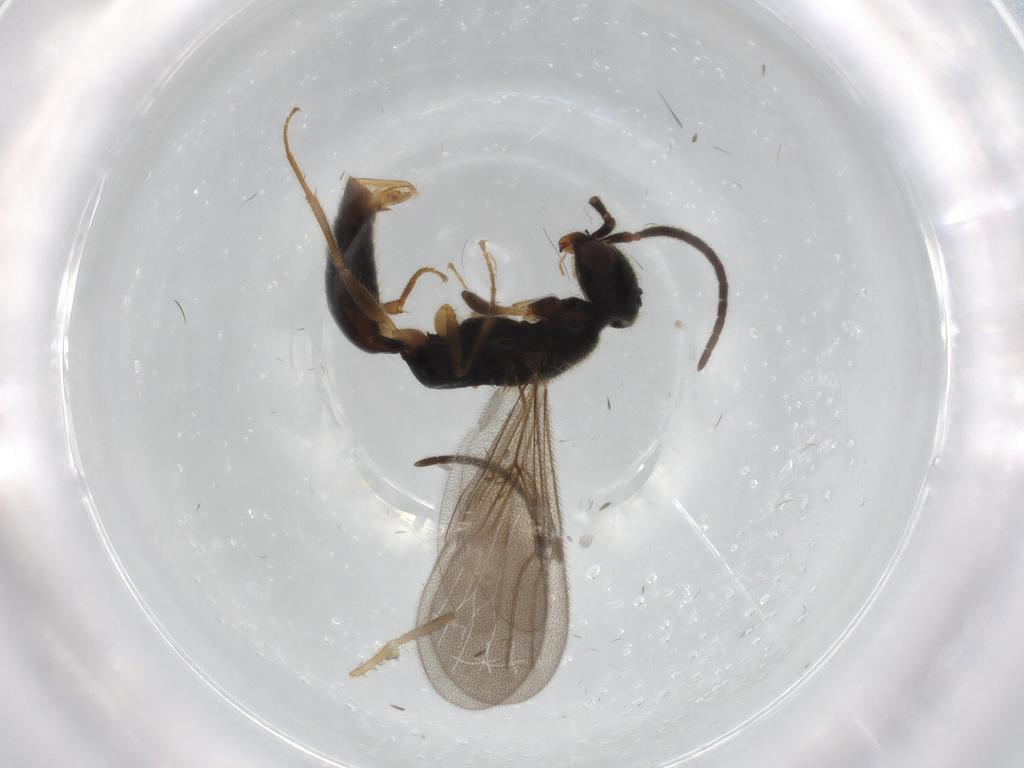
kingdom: Animalia
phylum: Arthropoda
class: Insecta
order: Hymenoptera
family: Bethylidae
